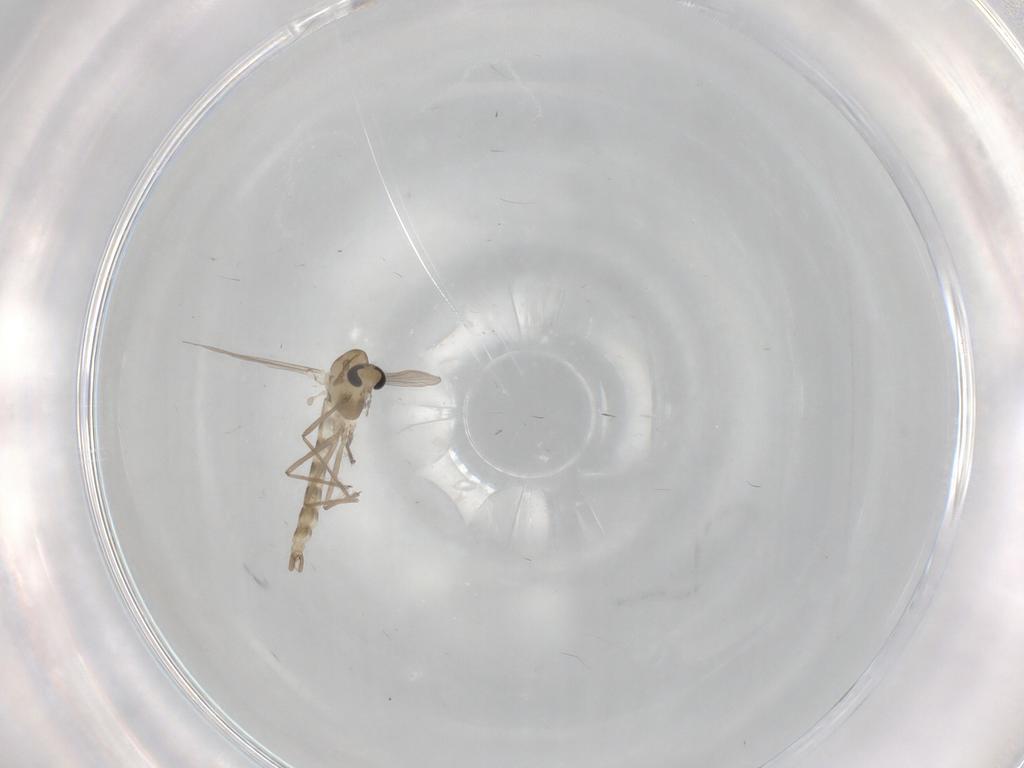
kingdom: Animalia
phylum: Arthropoda
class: Insecta
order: Diptera
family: Chironomidae
